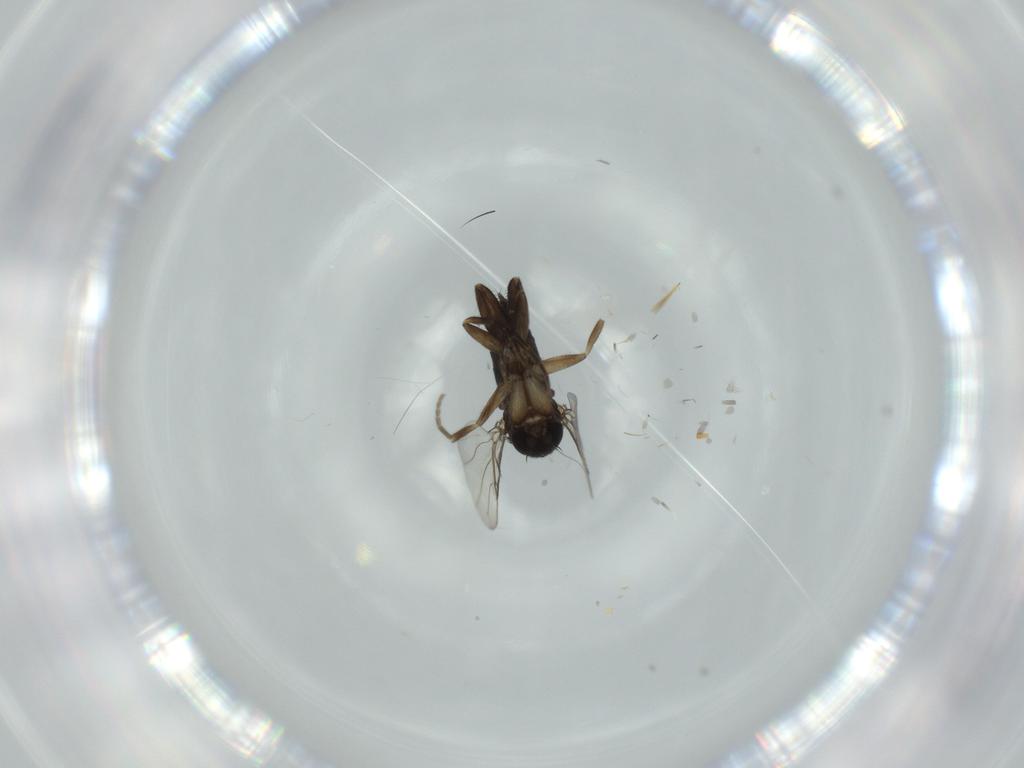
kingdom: Animalia
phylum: Arthropoda
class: Insecta
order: Diptera
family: Phoridae
